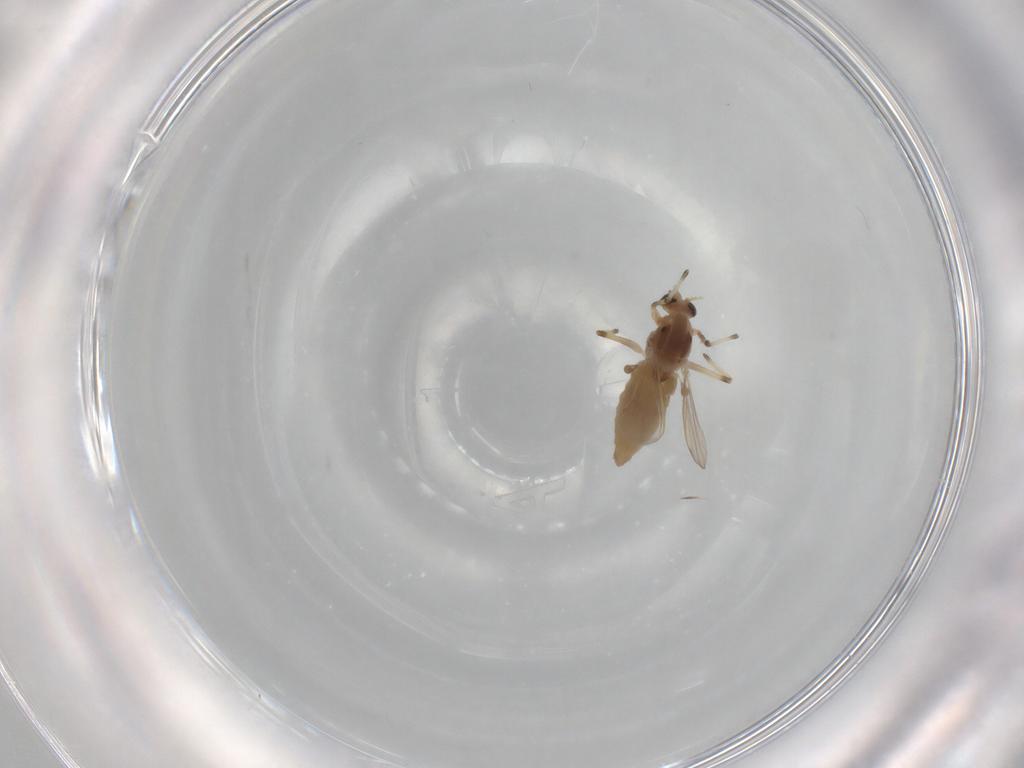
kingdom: Animalia
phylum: Arthropoda
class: Insecta
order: Diptera
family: Chironomidae
